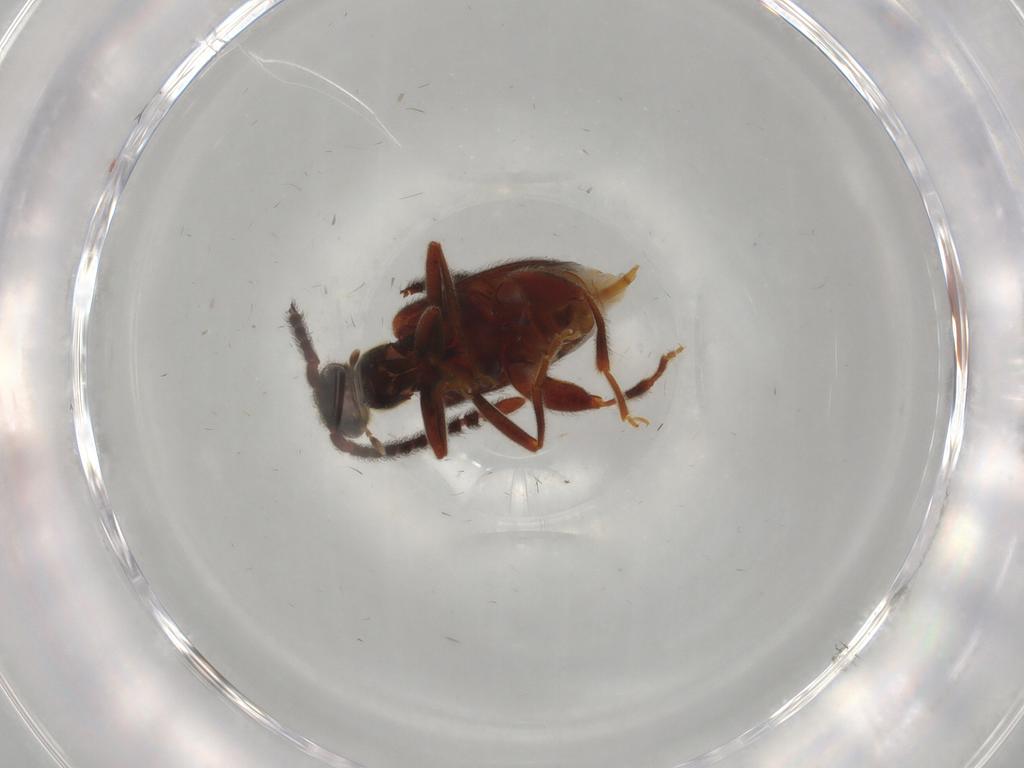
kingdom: Animalia
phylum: Arthropoda
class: Insecta
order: Coleoptera
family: Aderidae
